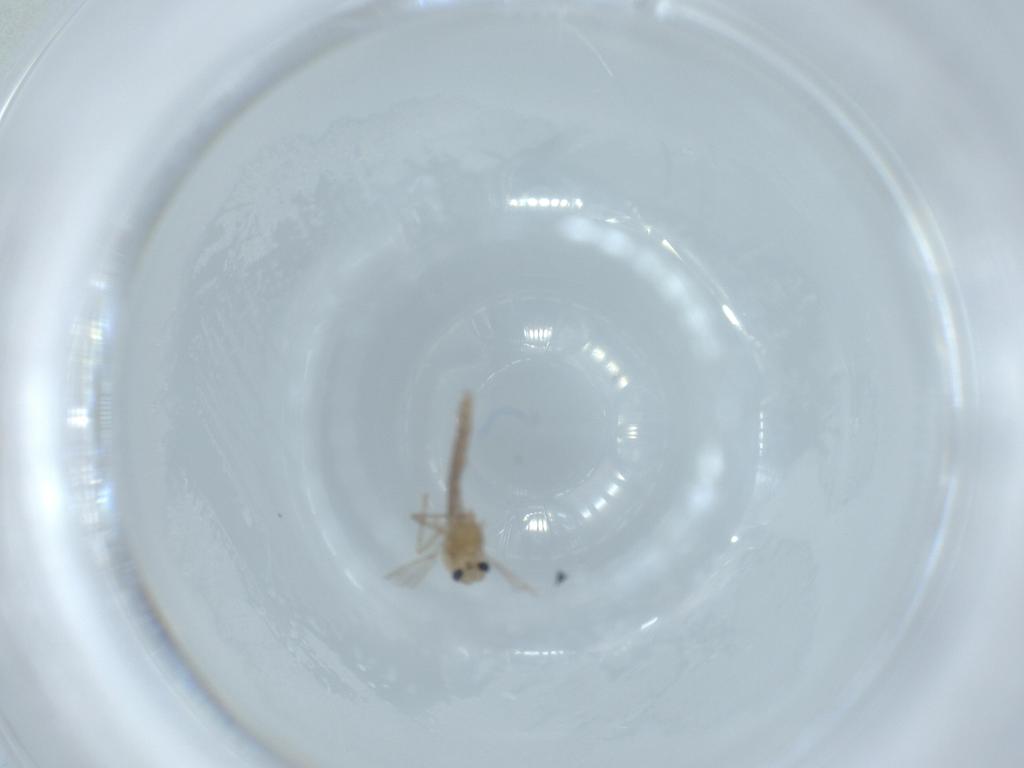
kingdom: Animalia
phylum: Arthropoda
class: Insecta
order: Diptera
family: Chironomidae
